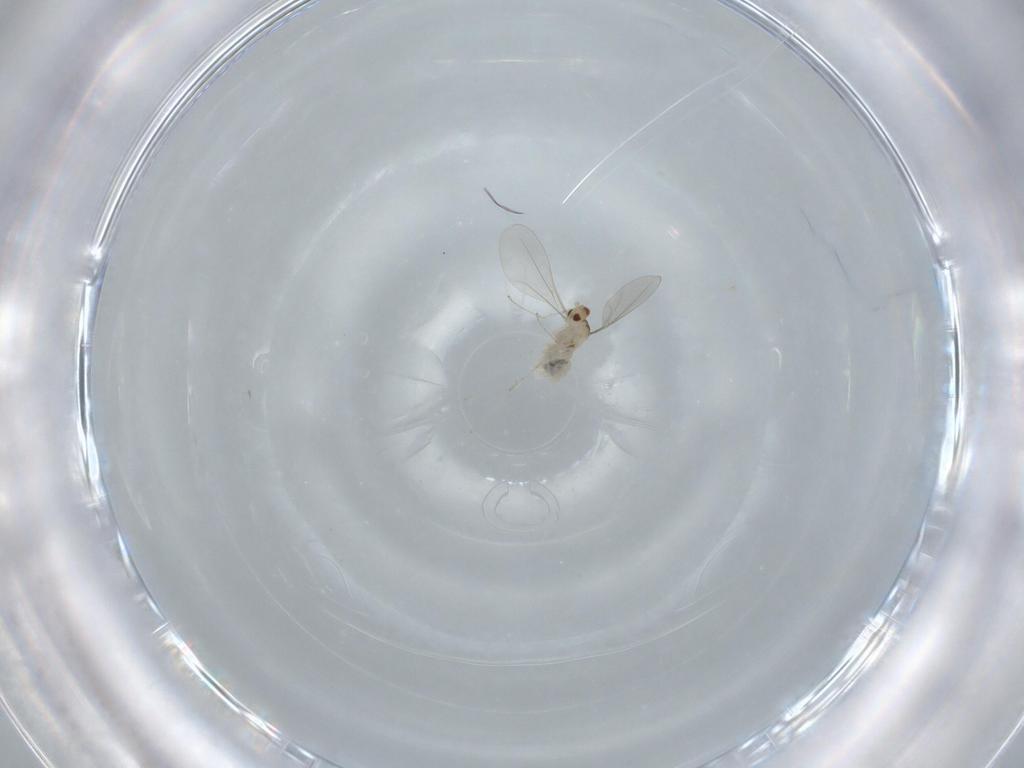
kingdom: Animalia
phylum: Arthropoda
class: Insecta
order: Diptera
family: Cecidomyiidae
